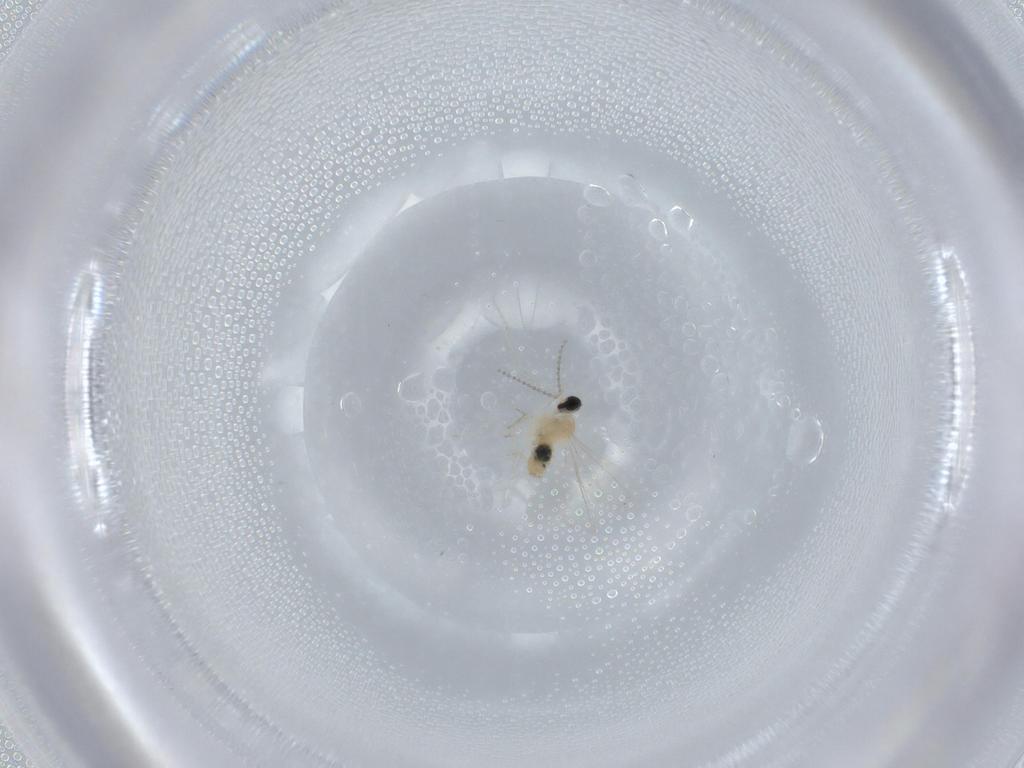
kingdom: Animalia
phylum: Arthropoda
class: Insecta
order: Diptera
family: Cecidomyiidae
